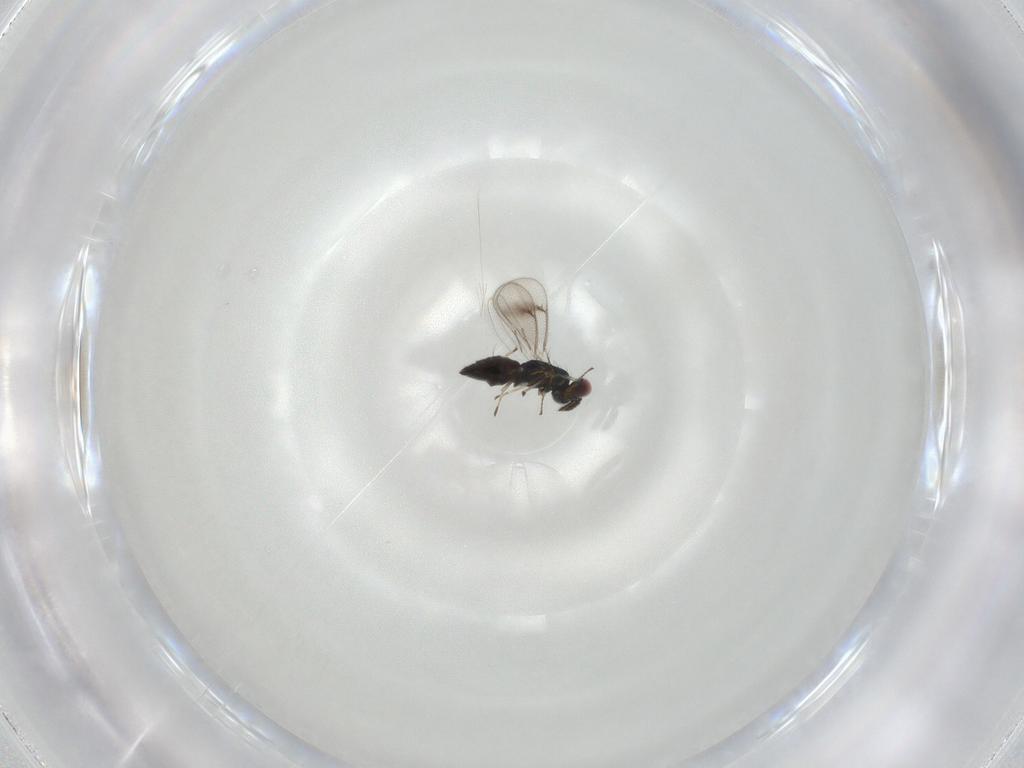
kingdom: Animalia
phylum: Arthropoda
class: Insecta
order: Hymenoptera
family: Eulophidae
